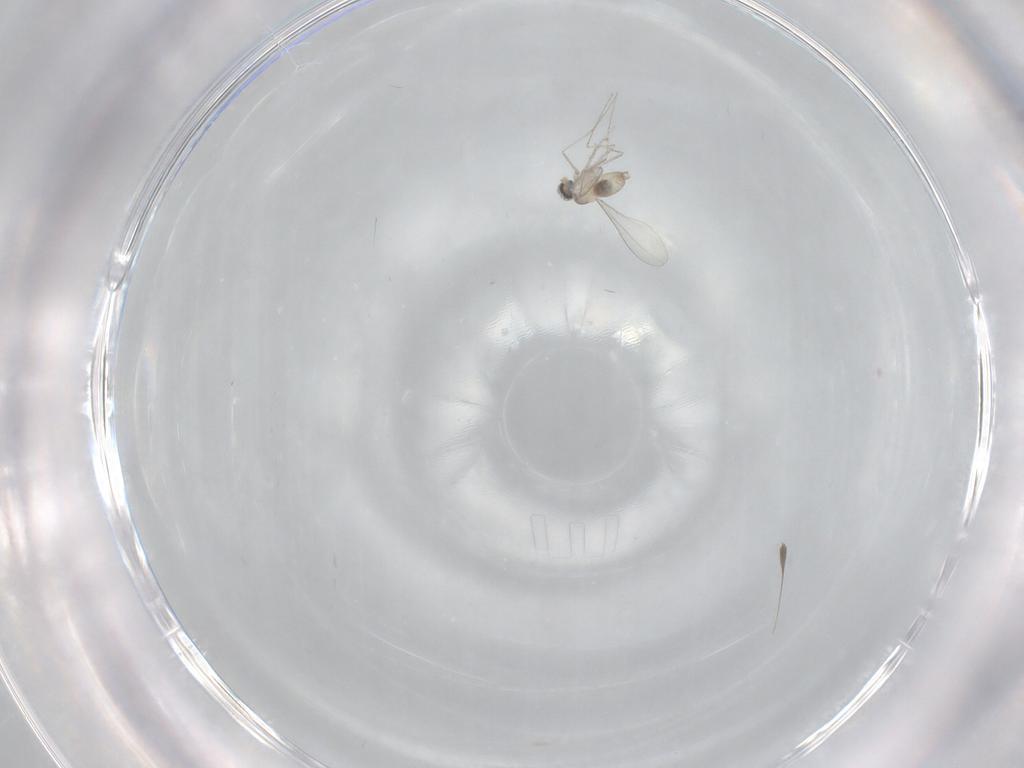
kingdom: Animalia
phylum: Arthropoda
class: Insecta
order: Diptera
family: Cecidomyiidae
